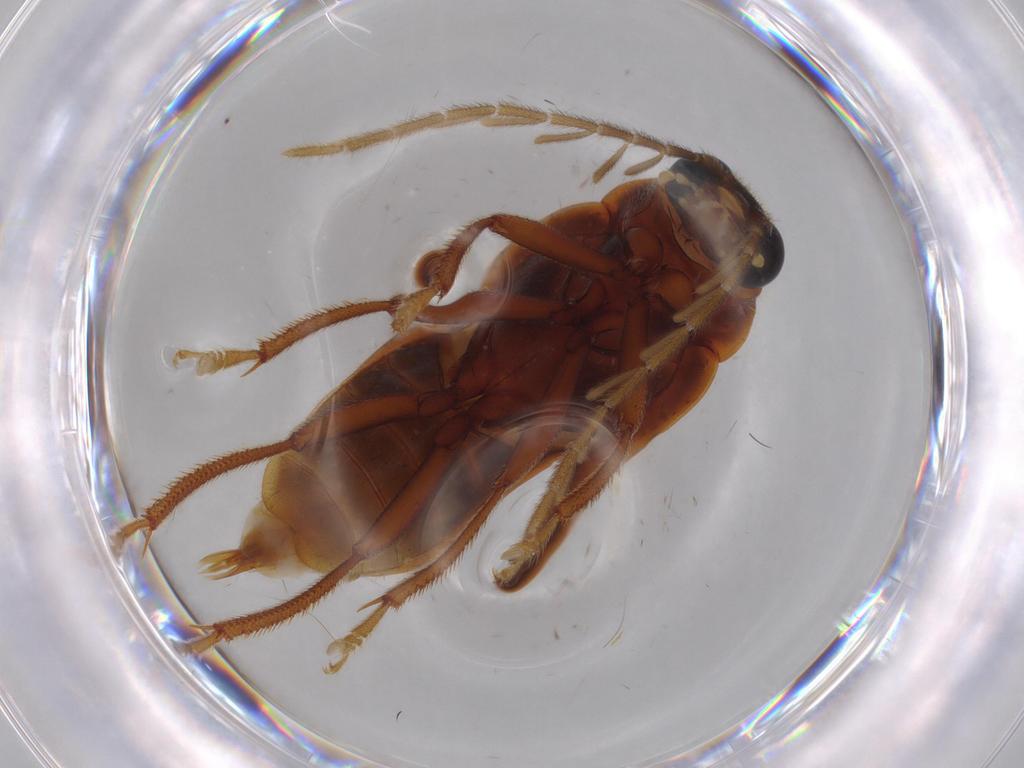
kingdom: Animalia
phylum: Arthropoda
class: Insecta
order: Coleoptera
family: Ptilodactylidae
